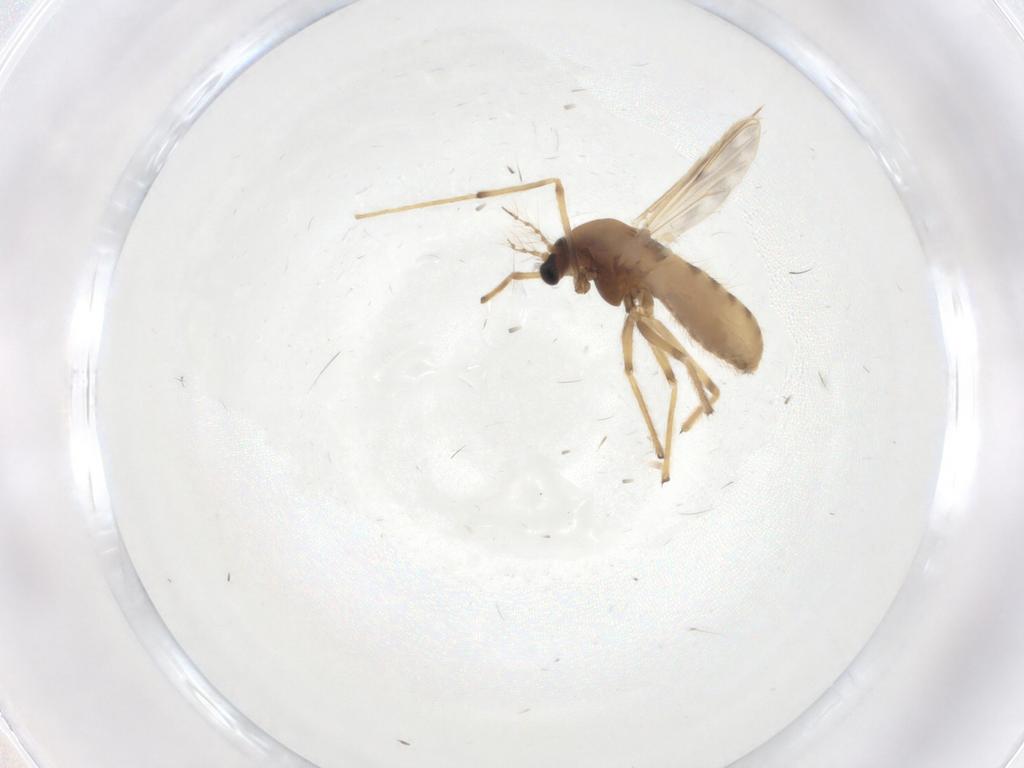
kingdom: Animalia
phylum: Arthropoda
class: Insecta
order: Diptera
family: Chironomidae
